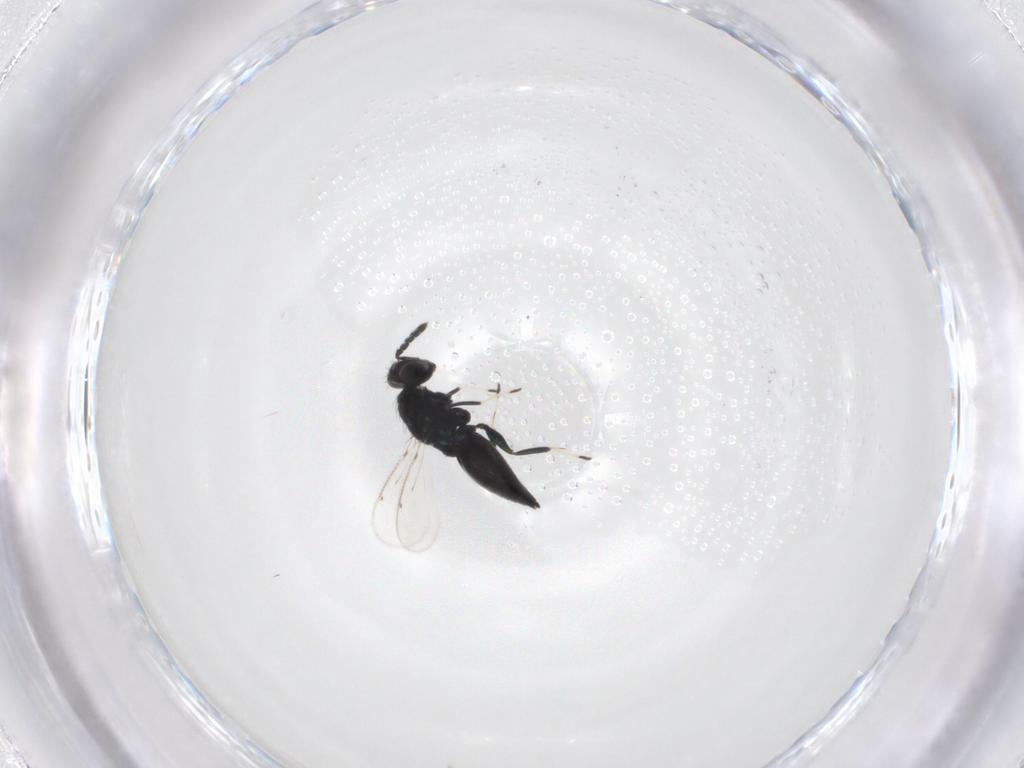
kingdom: Animalia
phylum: Arthropoda
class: Insecta
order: Hymenoptera
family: Eulophidae
